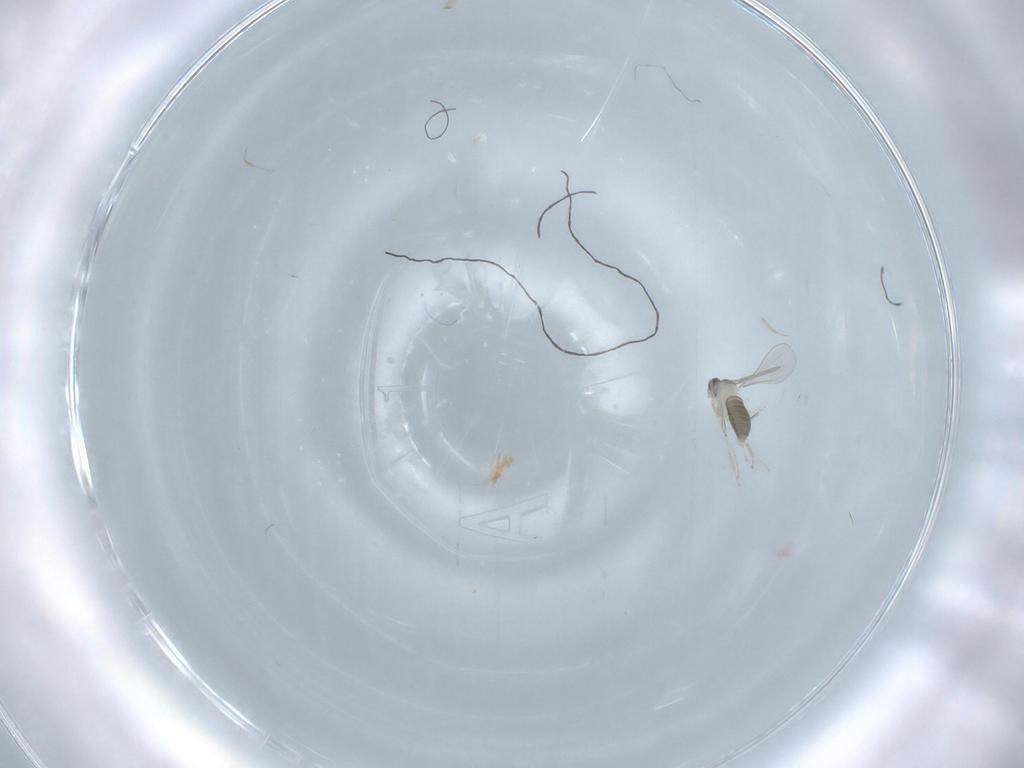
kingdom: Animalia
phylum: Arthropoda
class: Insecta
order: Diptera
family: Cecidomyiidae
